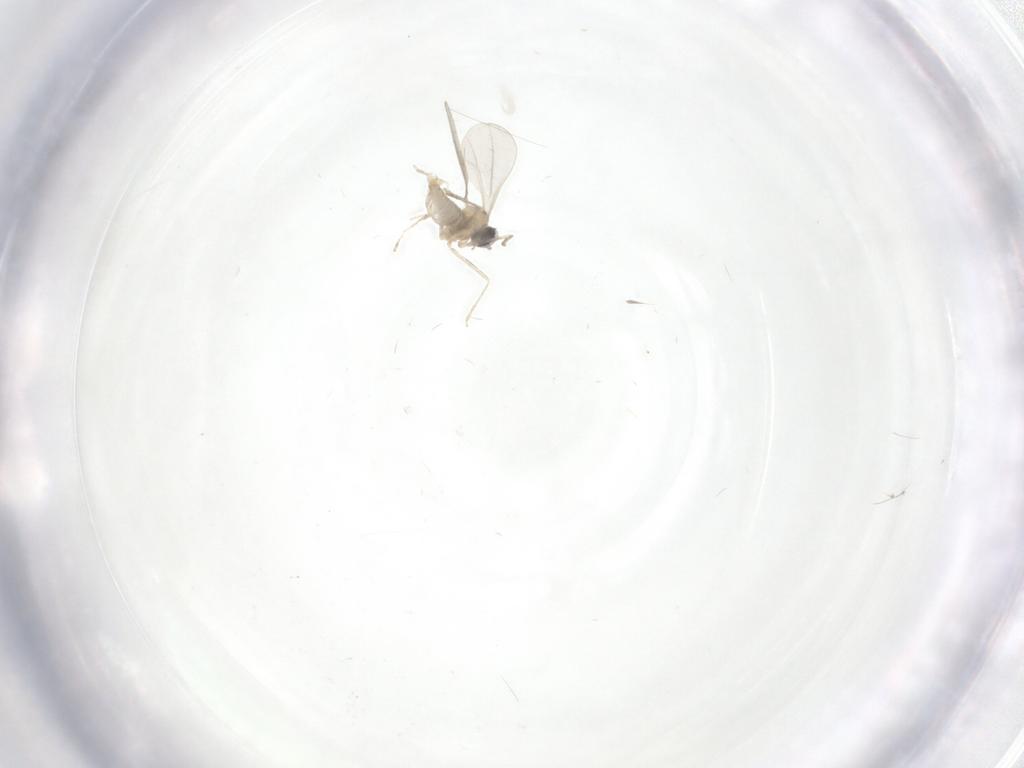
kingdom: Animalia
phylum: Arthropoda
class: Insecta
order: Diptera
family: Cecidomyiidae
